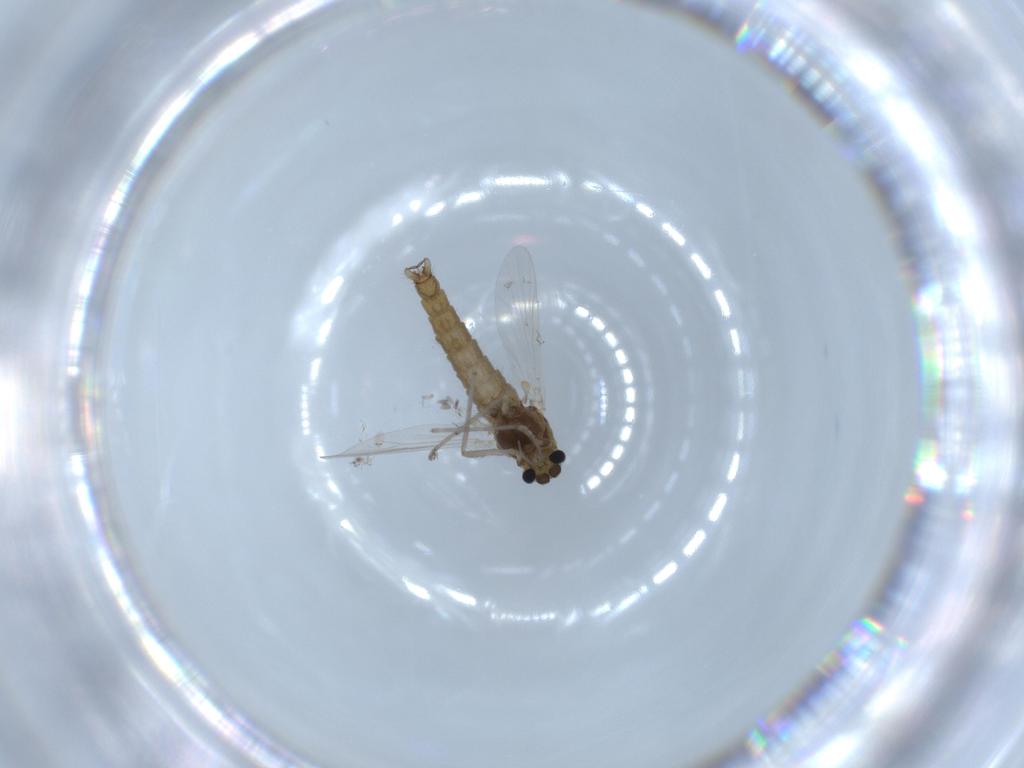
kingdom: Animalia
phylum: Arthropoda
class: Insecta
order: Diptera
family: Chironomidae
